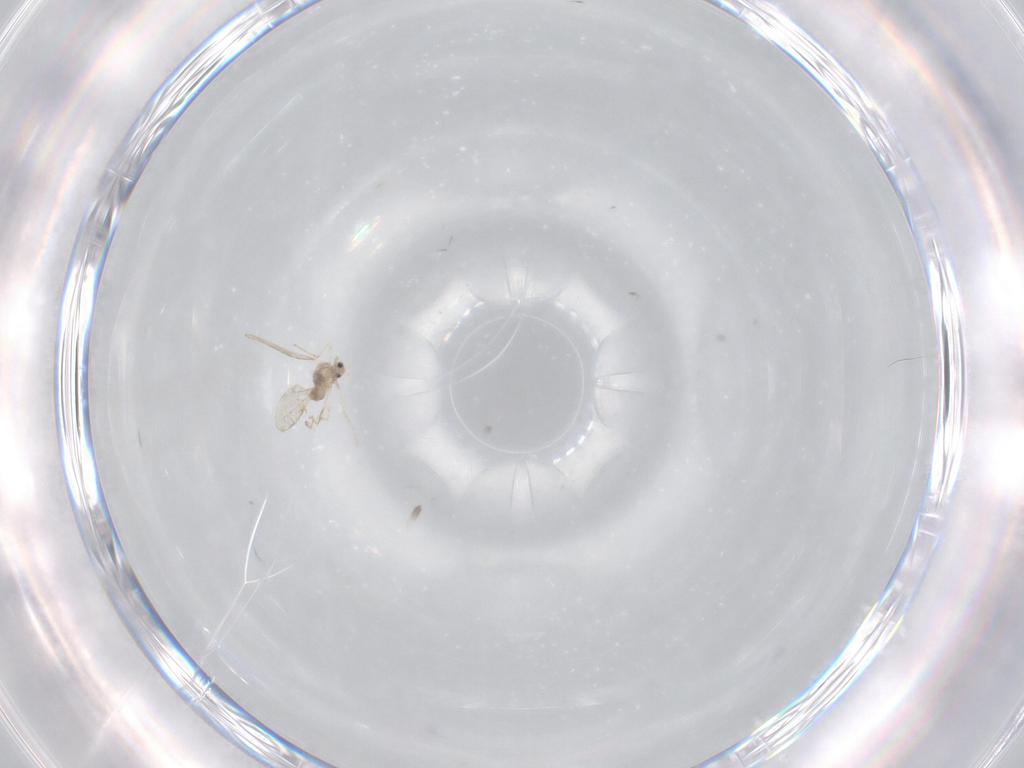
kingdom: Animalia
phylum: Arthropoda
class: Insecta
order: Diptera
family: Cecidomyiidae
